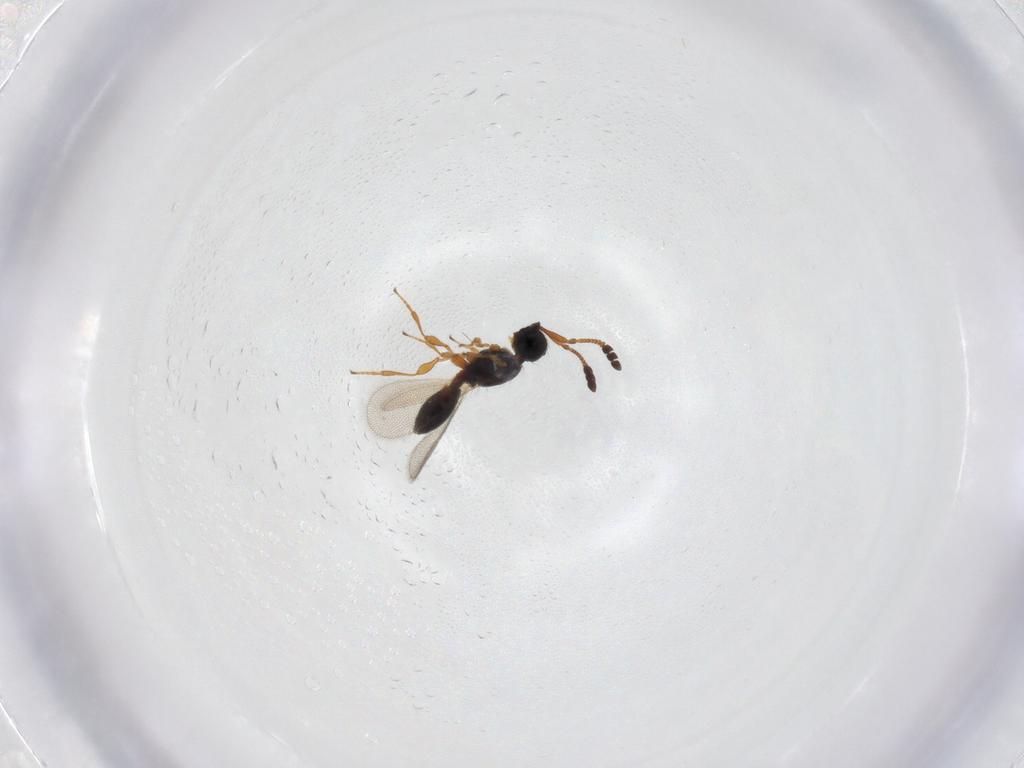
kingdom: Animalia
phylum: Arthropoda
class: Insecta
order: Hymenoptera
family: Diapriidae
